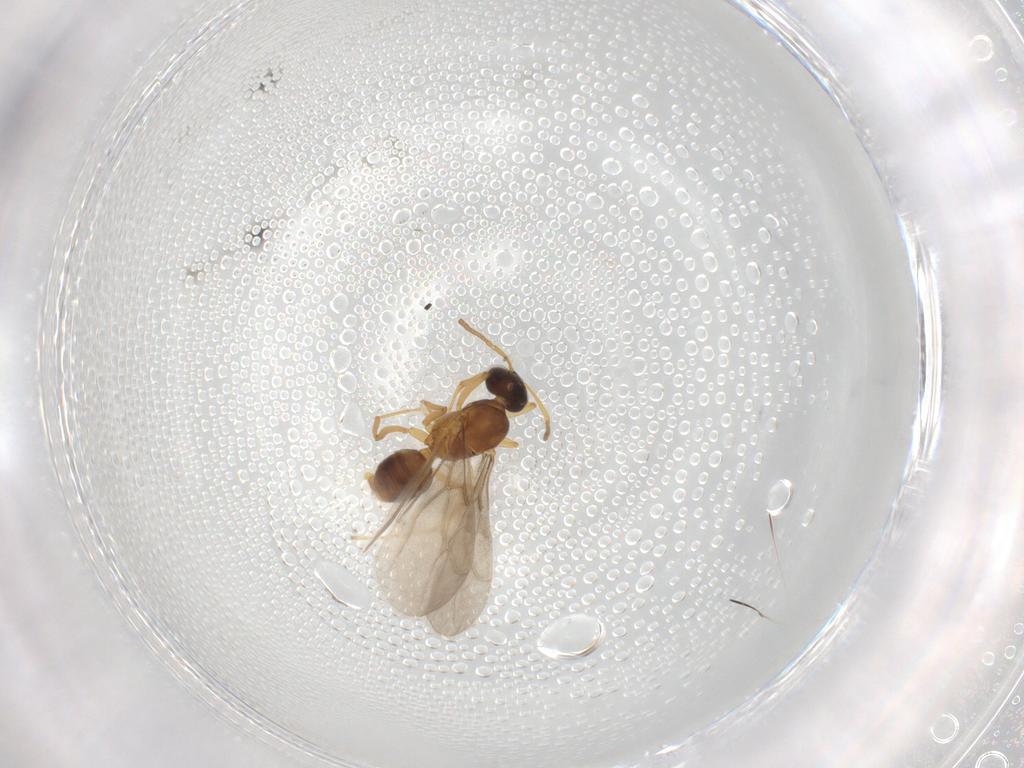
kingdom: Animalia
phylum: Arthropoda
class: Insecta
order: Hymenoptera
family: Formicidae
